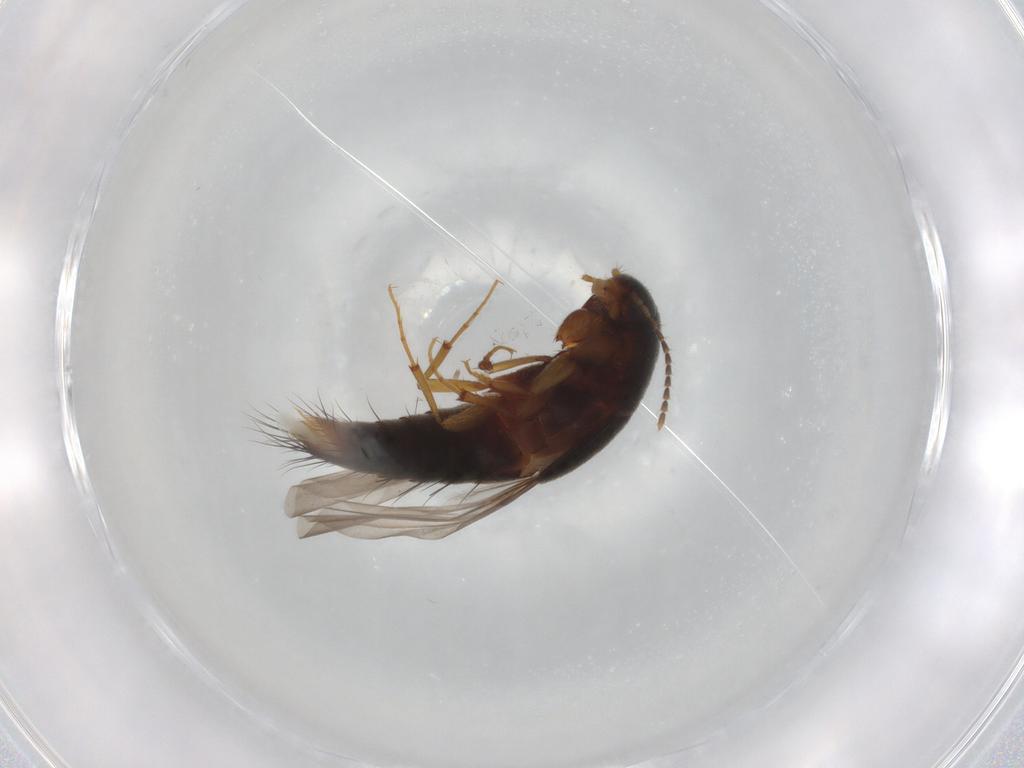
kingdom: Animalia
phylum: Arthropoda
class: Insecta
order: Coleoptera
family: Staphylinidae
